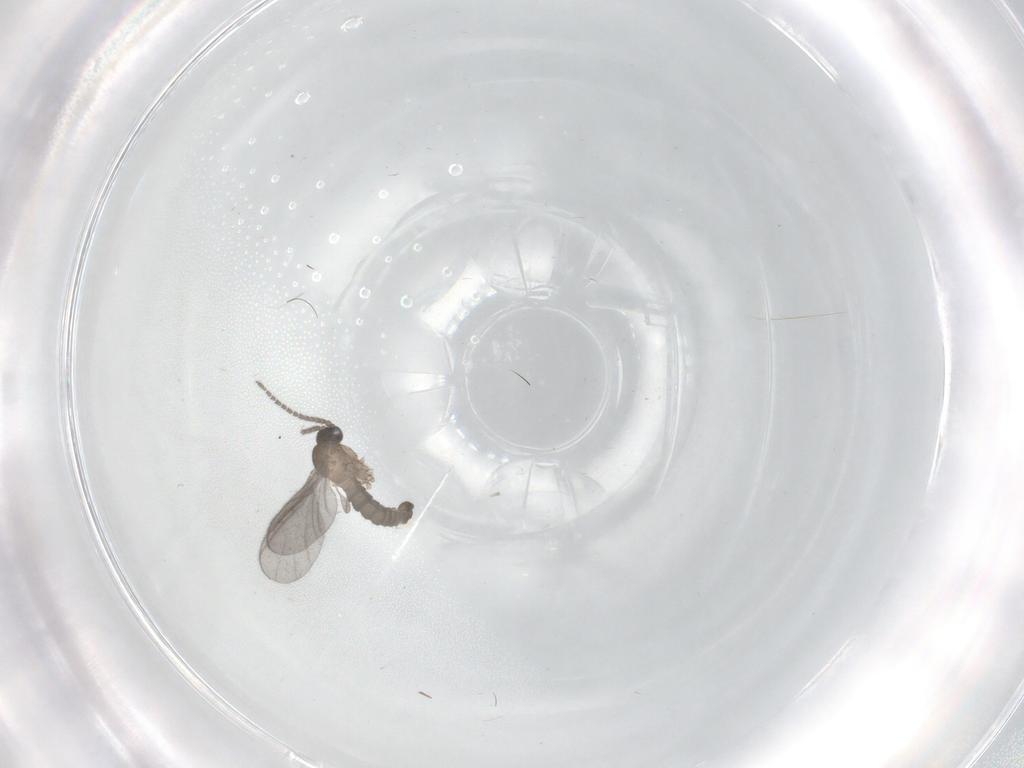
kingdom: Animalia
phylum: Arthropoda
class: Insecta
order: Diptera
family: Sciaridae
